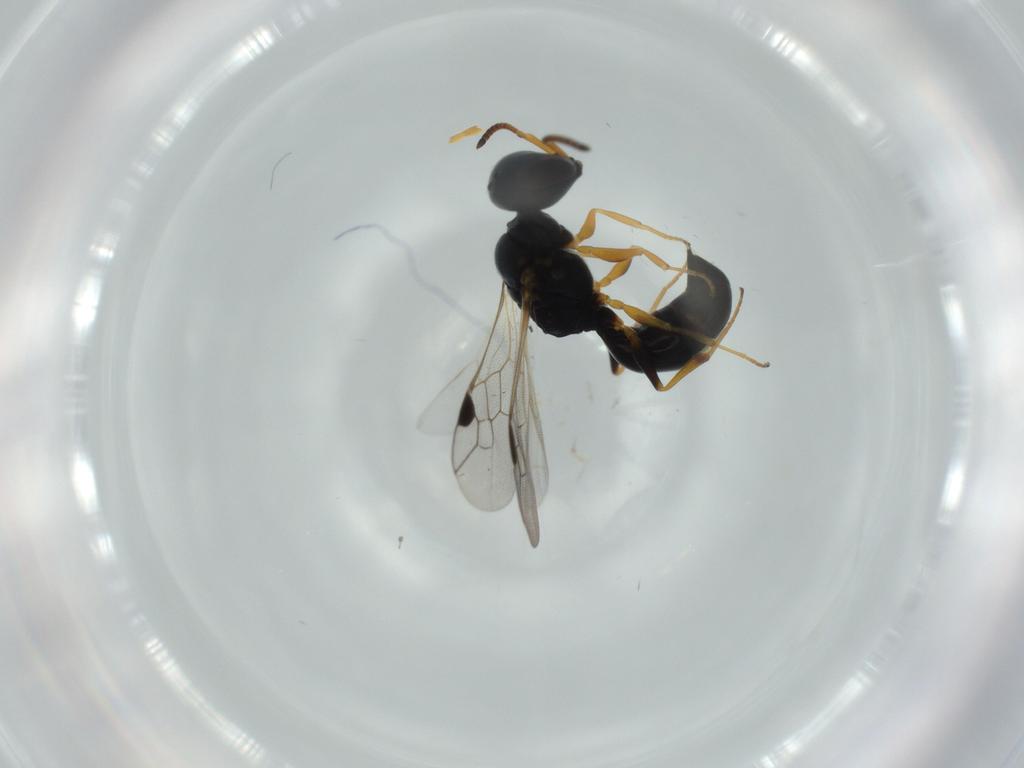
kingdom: Animalia
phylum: Arthropoda
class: Insecta
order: Hymenoptera
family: Pemphredonidae
